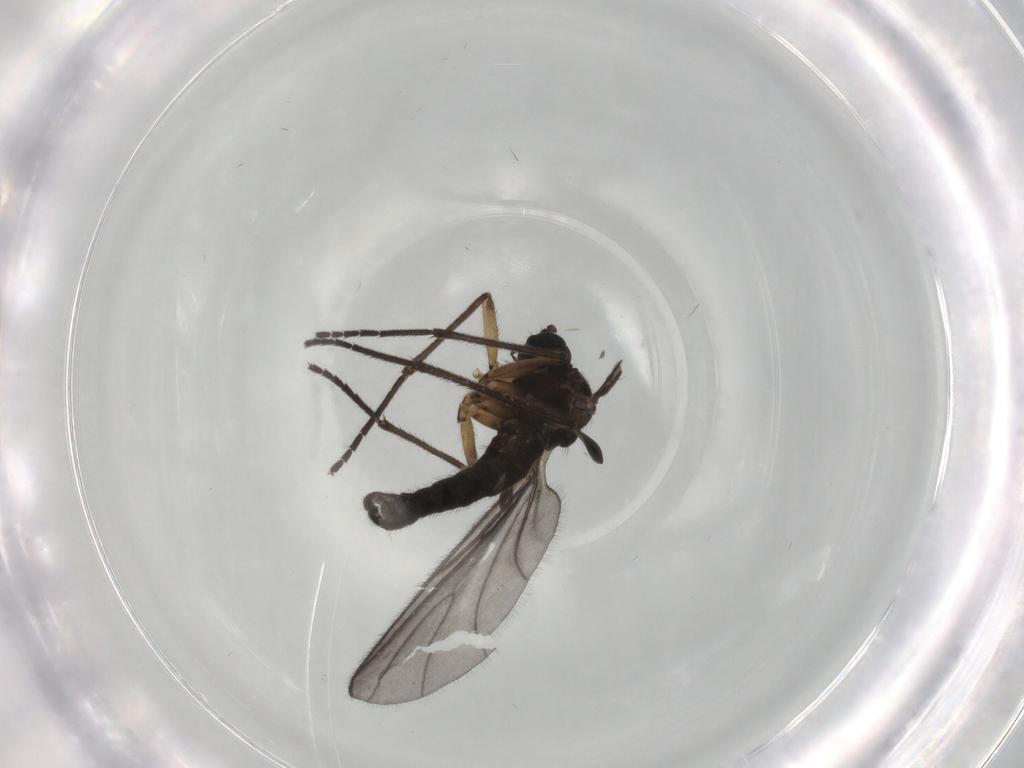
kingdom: Animalia
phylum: Arthropoda
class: Insecta
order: Diptera
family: Sciaridae
